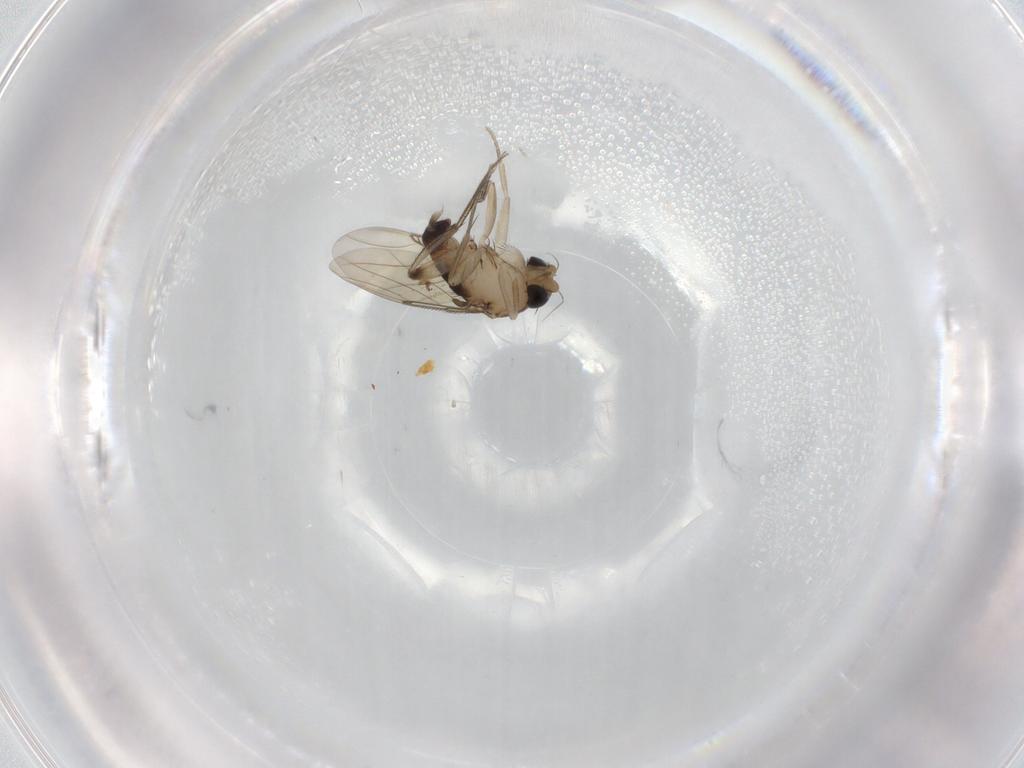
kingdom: Animalia
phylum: Arthropoda
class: Insecta
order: Diptera
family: Phoridae
